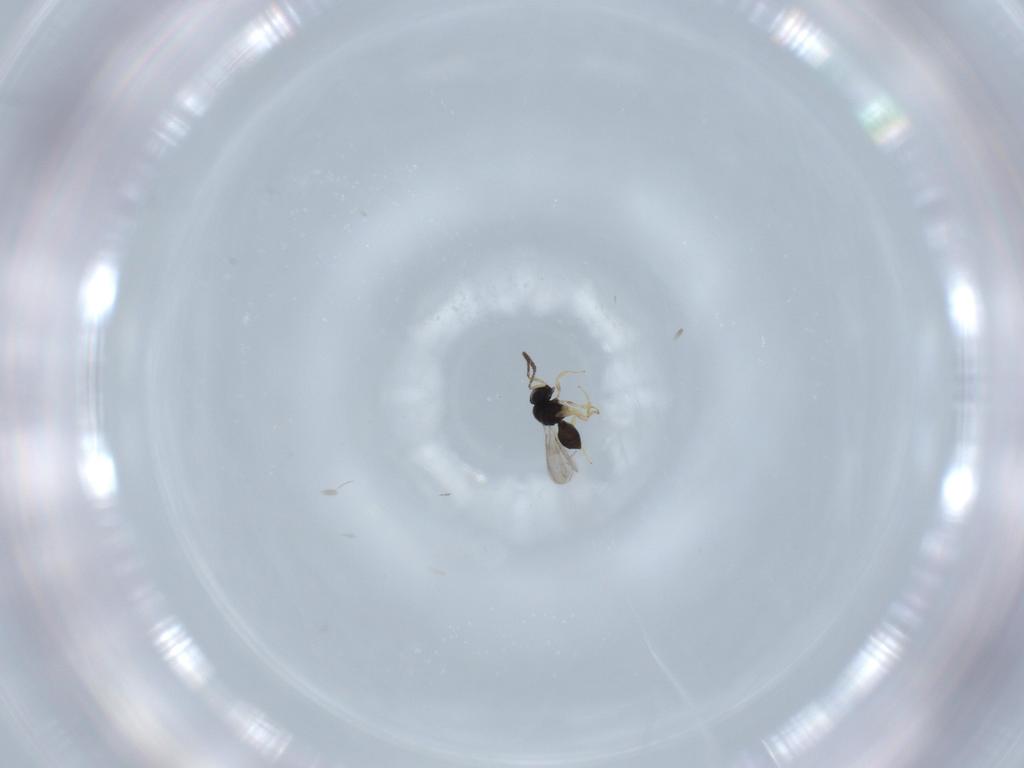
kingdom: Animalia
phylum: Arthropoda
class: Insecta
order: Hymenoptera
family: Scelionidae
